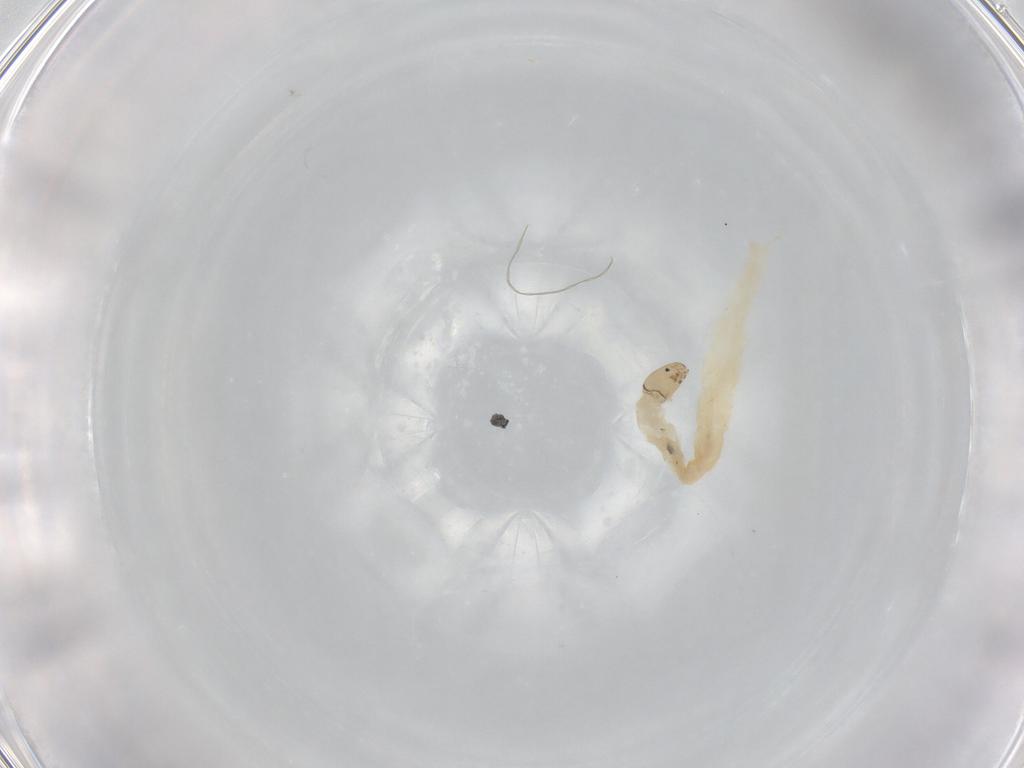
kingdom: Animalia
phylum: Arthropoda
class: Insecta
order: Diptera
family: Chironomidae
